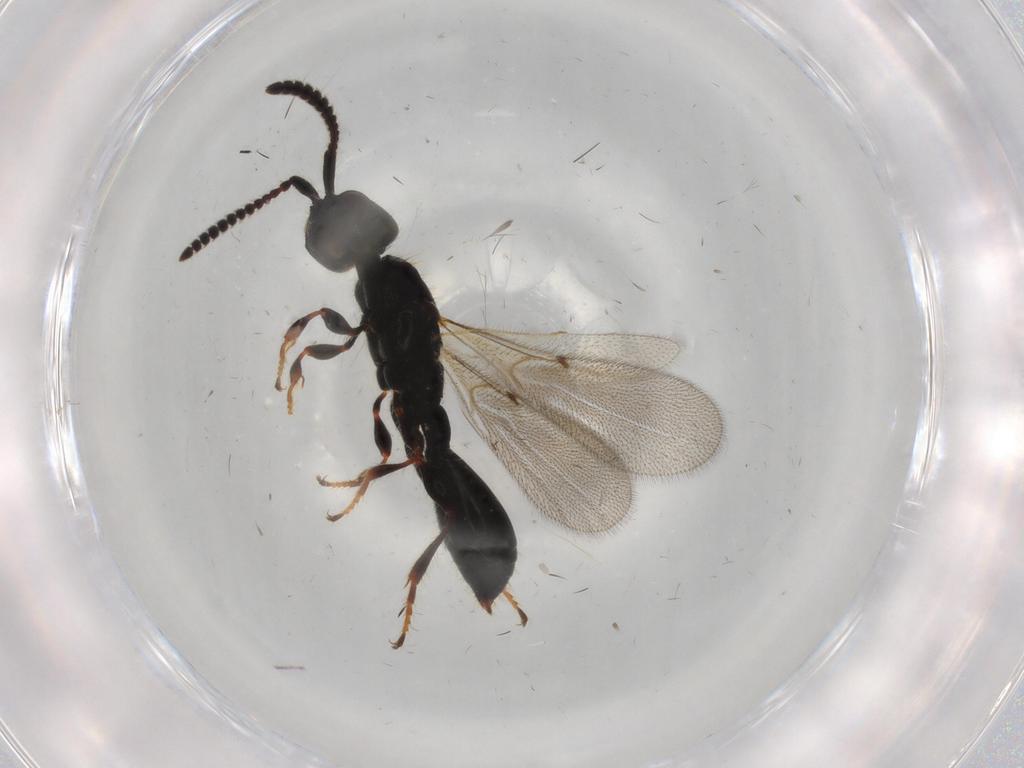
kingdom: Animalia
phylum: Arthropoda
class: Insecta
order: Hymenoptera
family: Diapriidae
